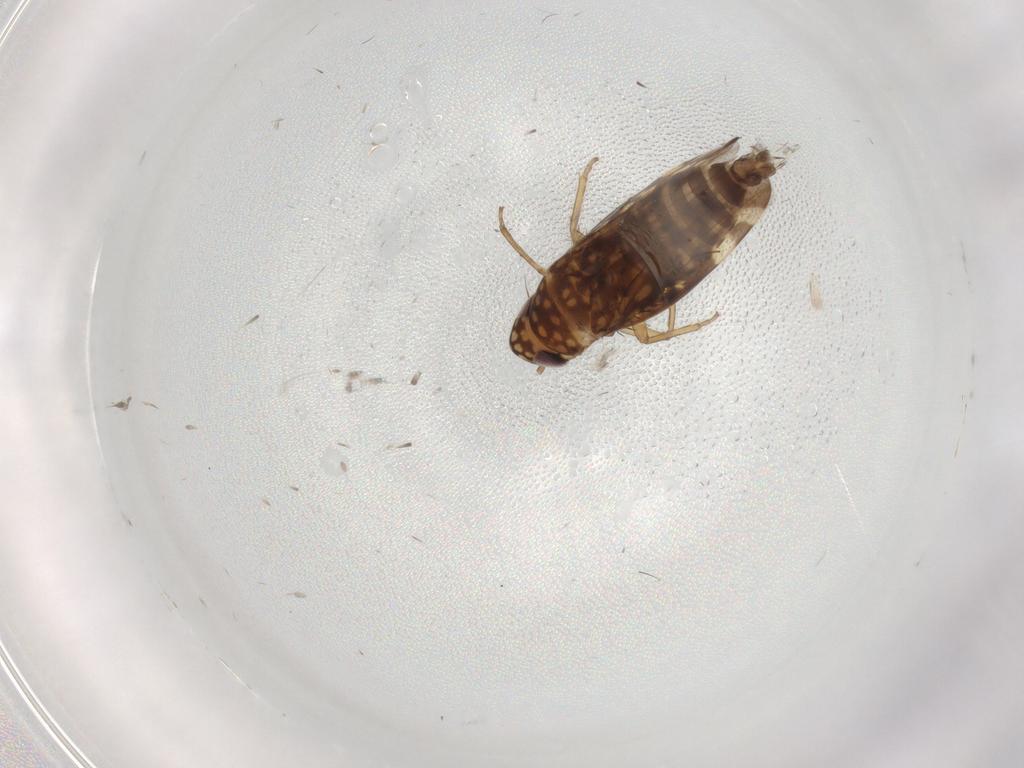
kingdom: Animalia
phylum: Arthropoda
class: Insecta
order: Hemiptera
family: Cicadellidae
